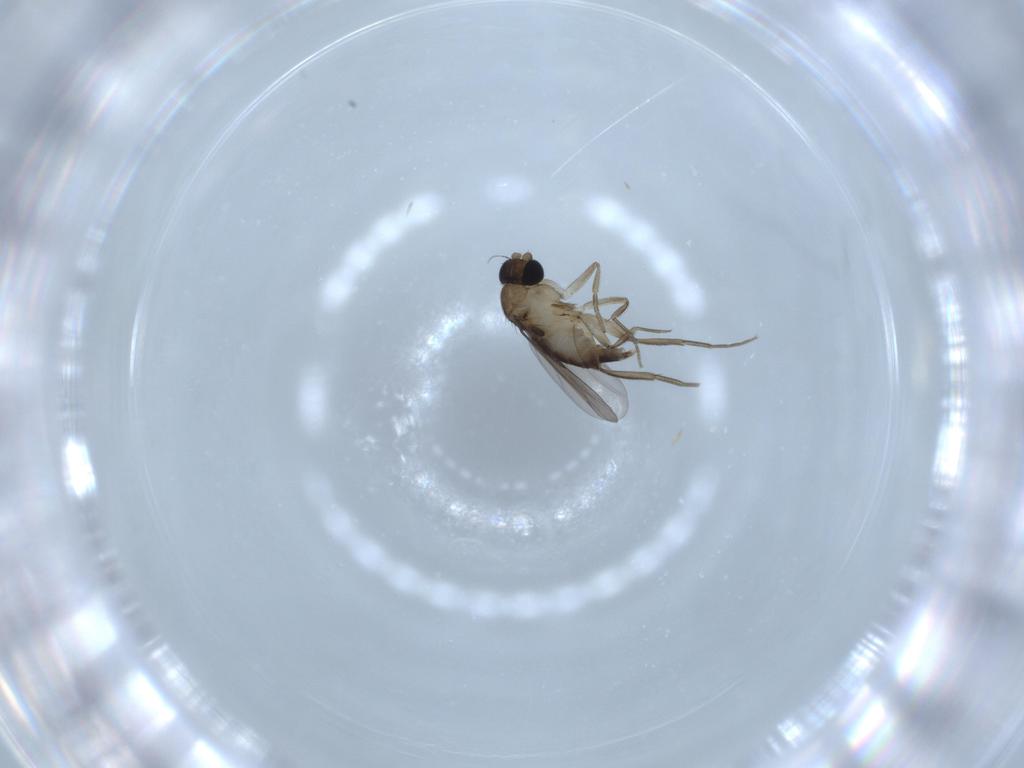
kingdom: Animalia
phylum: Arthropoda
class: Insecta
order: Diptera
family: Phoridae
